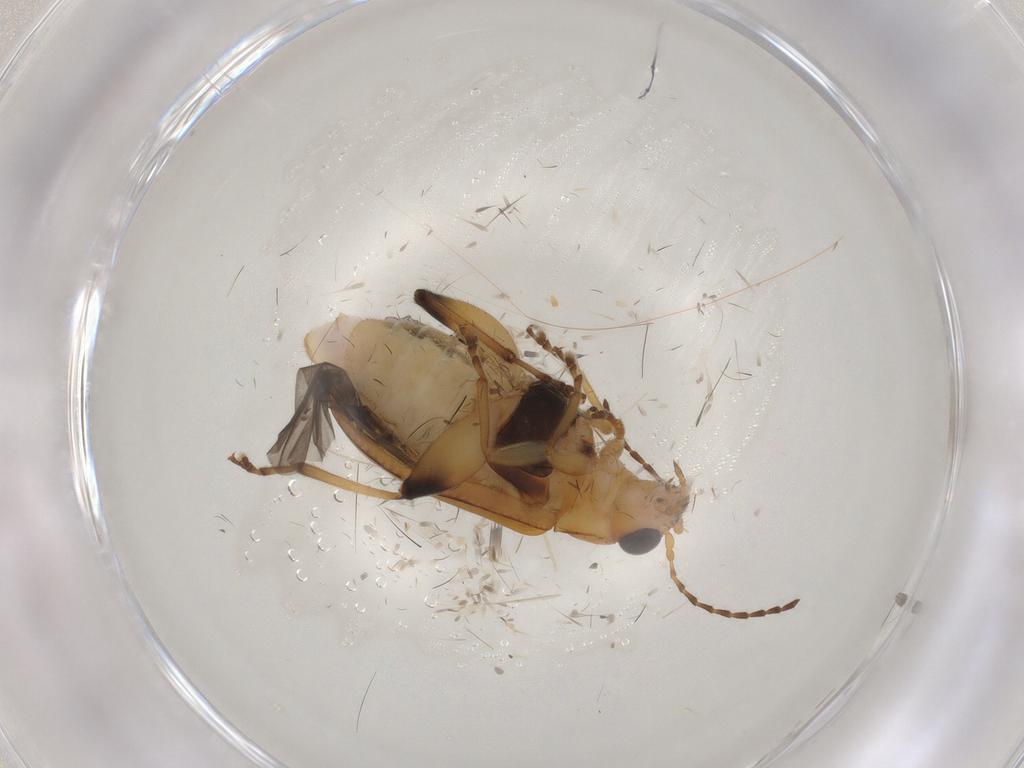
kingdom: Animalia
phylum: Arthropoda
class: Insecta
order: Coleoptera
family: Chrysomelidae
